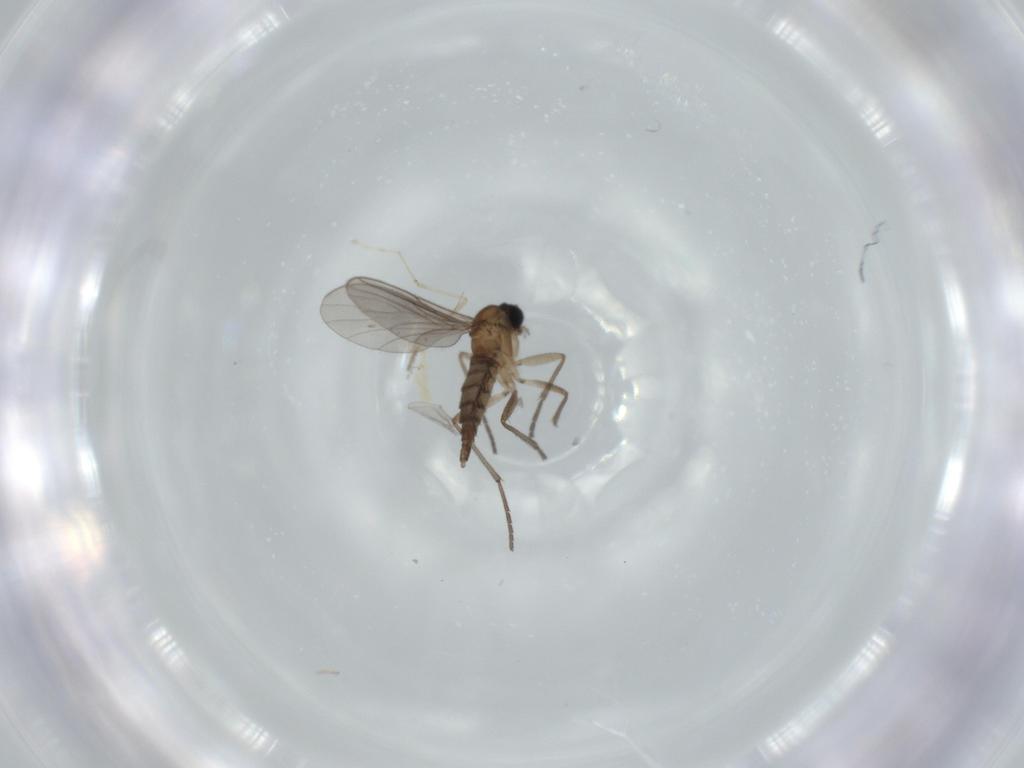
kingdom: Animalia
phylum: Arthropoda
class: Insecta
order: Diptera
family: Sciaridae
